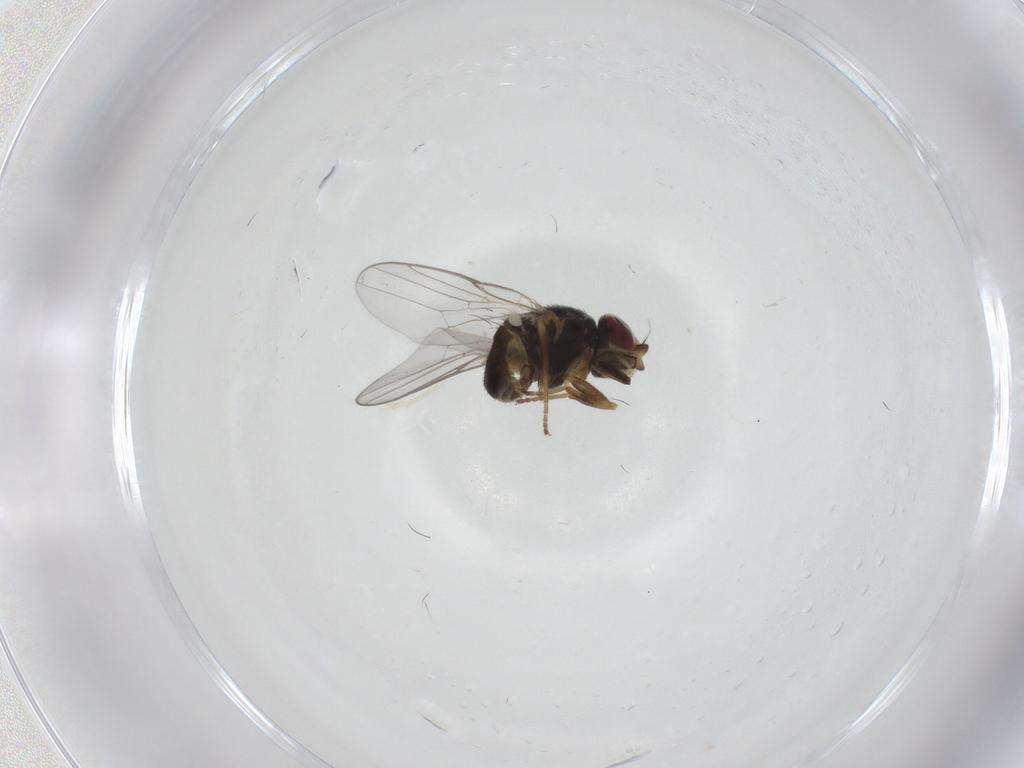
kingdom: Animalia
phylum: Arthropoda
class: Insecta
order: Diptera
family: Chloropidae
